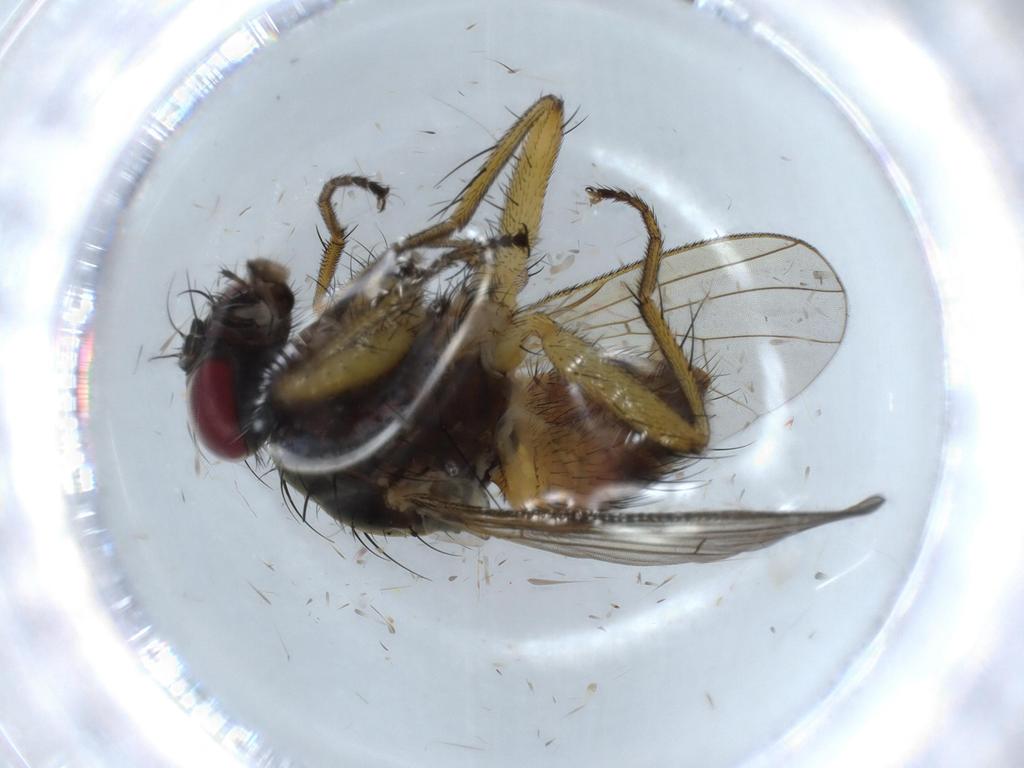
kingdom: Animalia
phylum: Arthropoda
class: Insecta
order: Diptera
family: Muscidae
